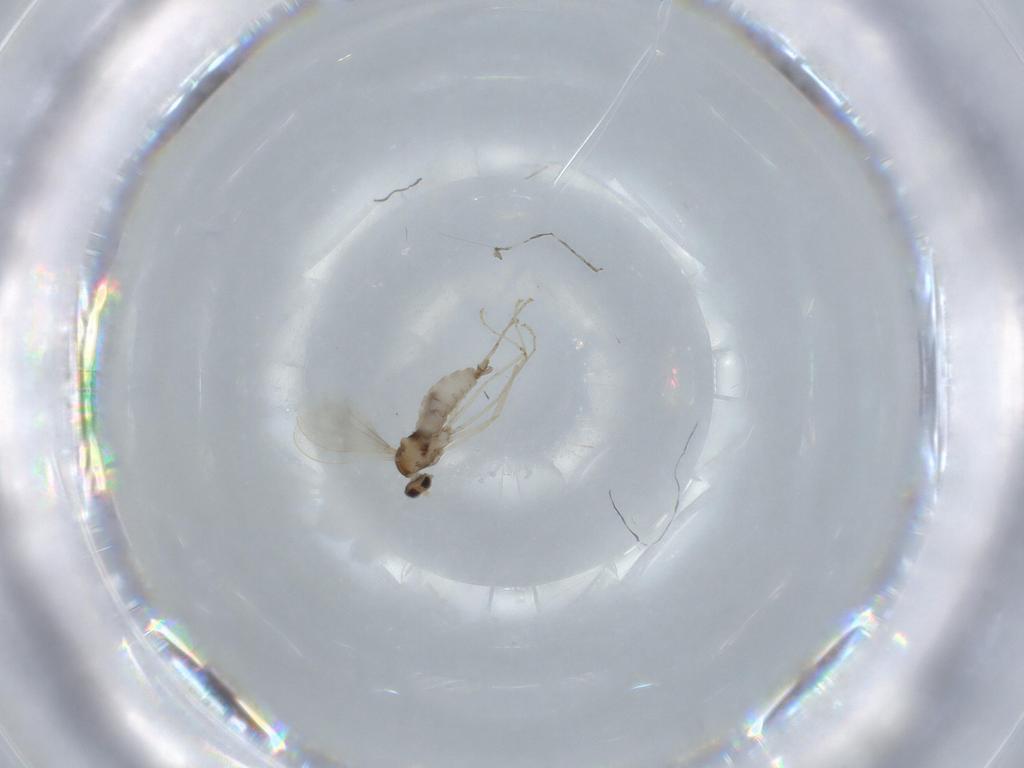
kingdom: Animalia
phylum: Arthropoda
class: Insecta
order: Diptera
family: Cecidomyiidae
